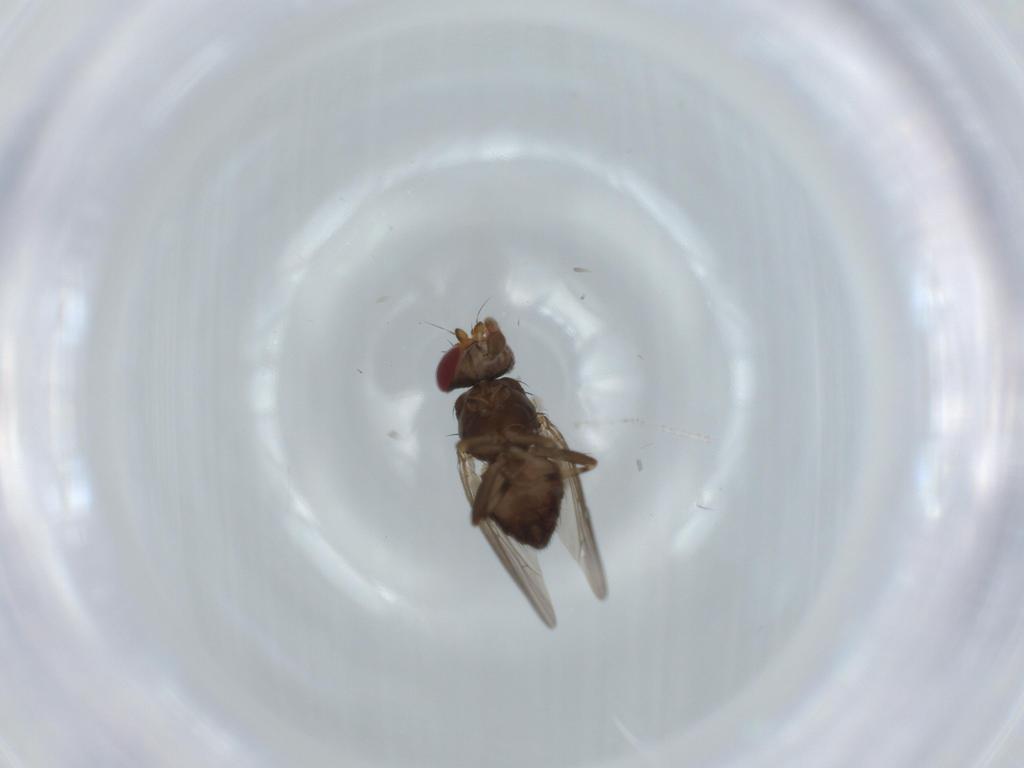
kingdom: Animalia
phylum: Arthropoda
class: Insecta
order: Diptera
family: Heleomyzidae
